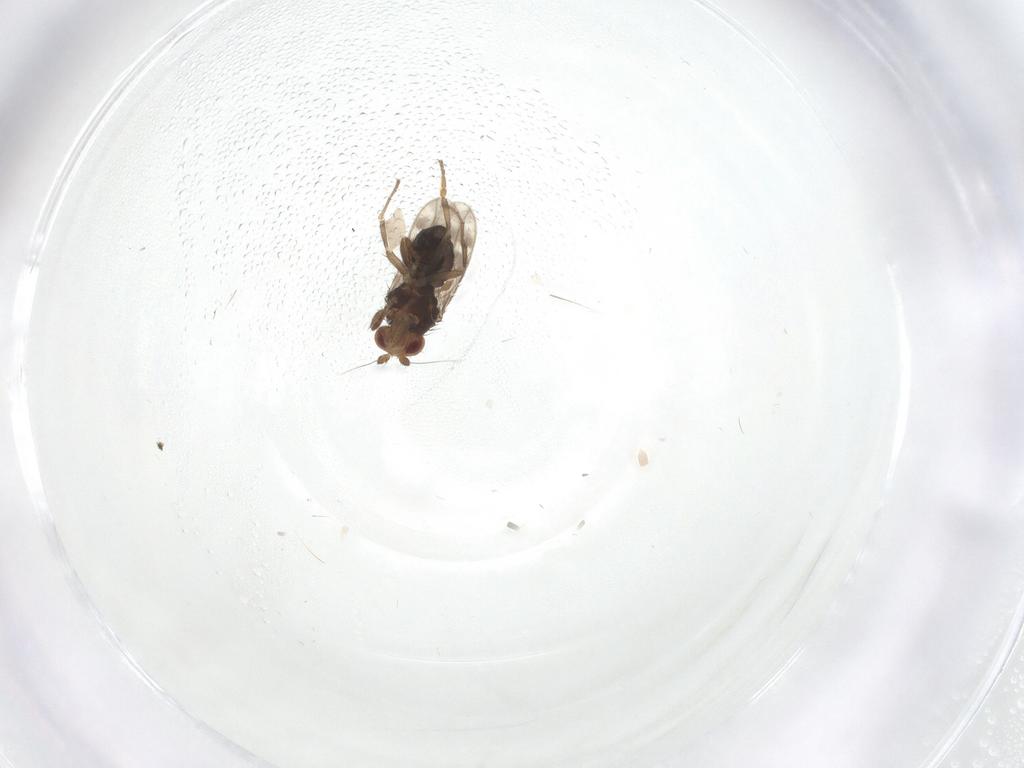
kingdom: Animalia
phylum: Arthropoda
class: Insecta
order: Diptera
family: Sphaeroceridae
